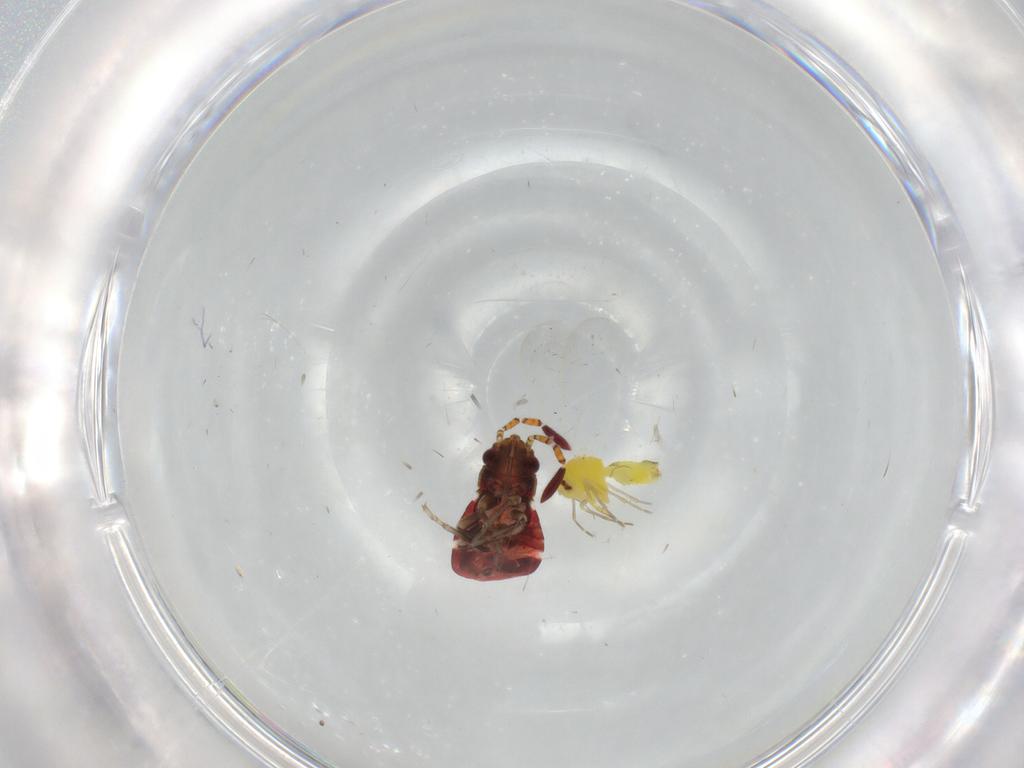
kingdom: Animalia
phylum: Arthropoda
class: Insecta
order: Hemiptera
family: Rhyparochromidae
